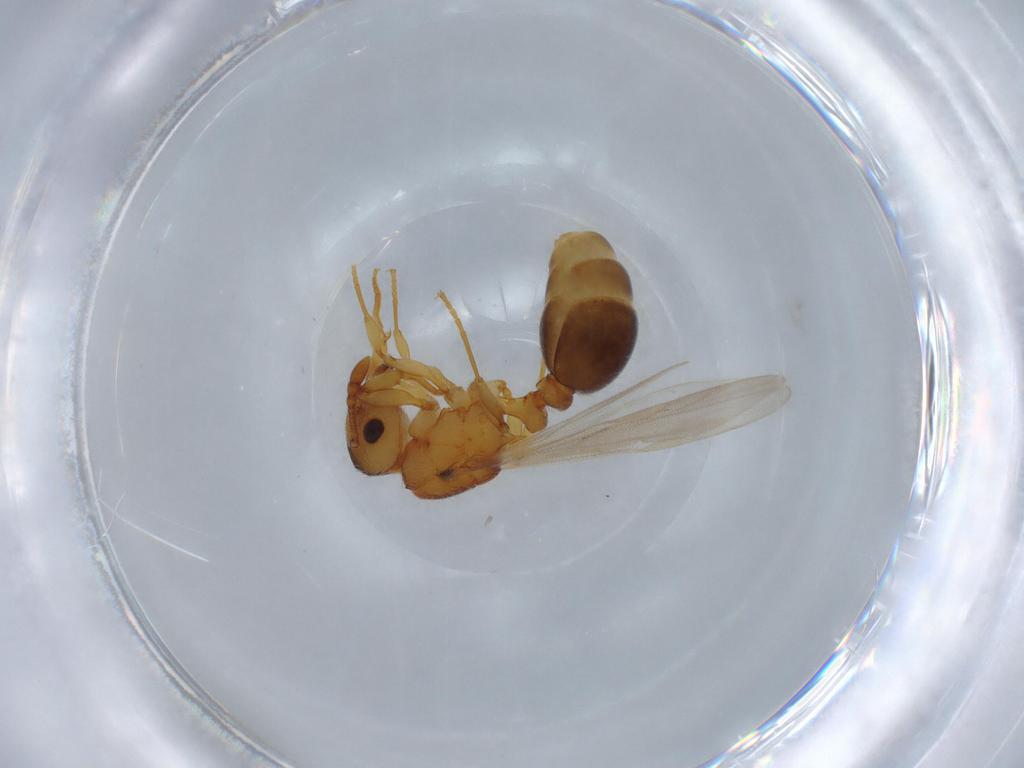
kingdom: Animalia
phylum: Arthropoda
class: Insecta
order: Hymenoptera
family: Formicidae
